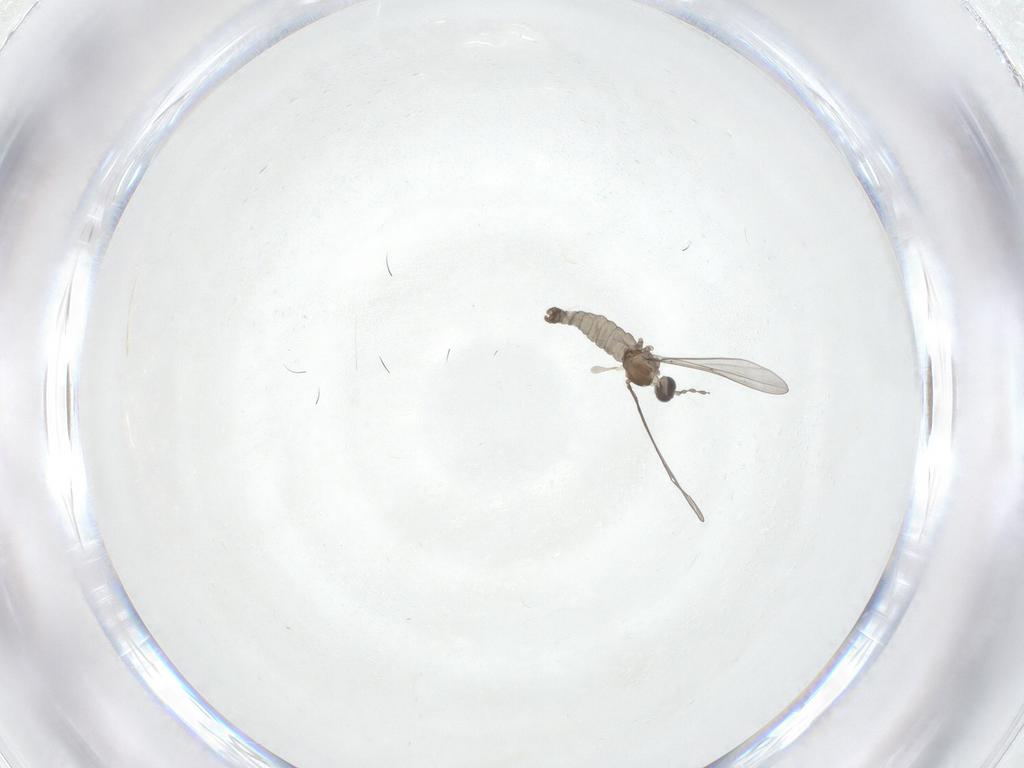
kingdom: Animalia
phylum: Arthropoda
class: Insecta
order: Diptera
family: Cecidomyiidae
